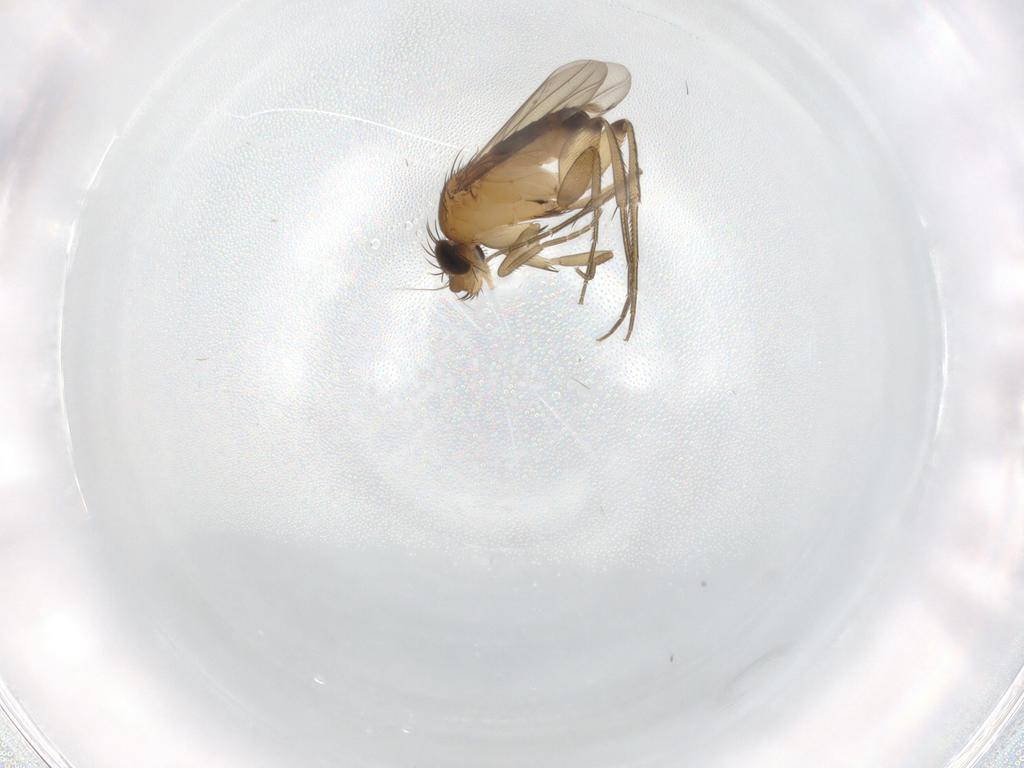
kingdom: Animalia
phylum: Arthropoda
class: Insecta
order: Diptera
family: Phoridae
